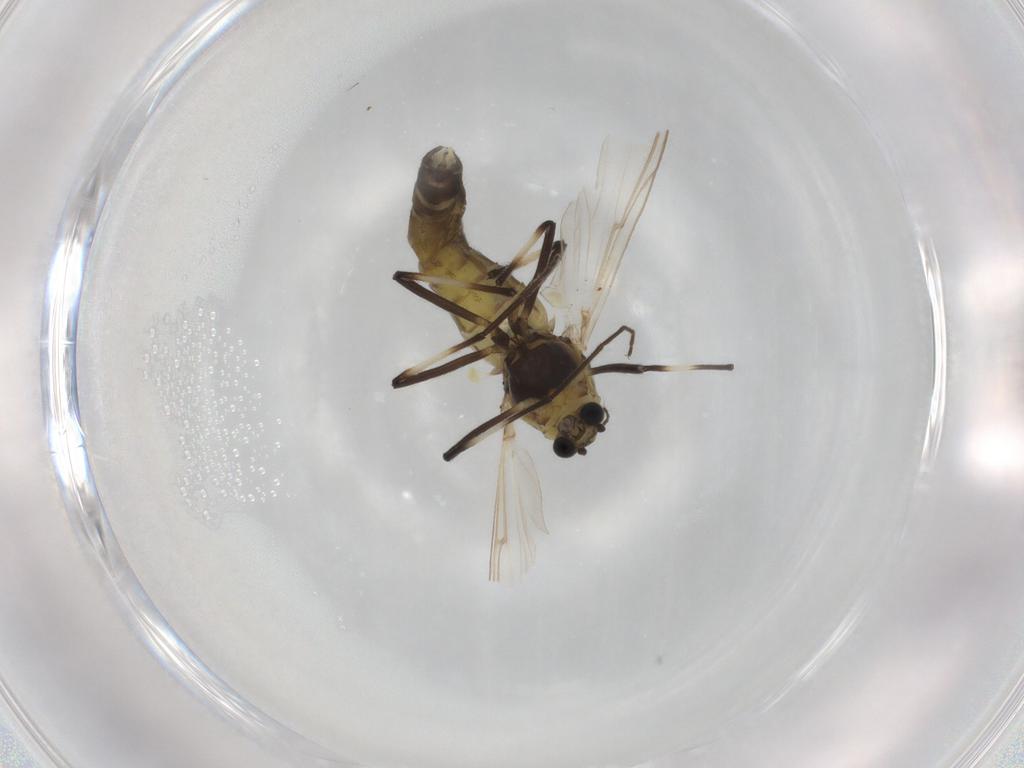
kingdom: Animalia
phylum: Arthropoda
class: Insecta
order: Diptera
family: Chironomidae
